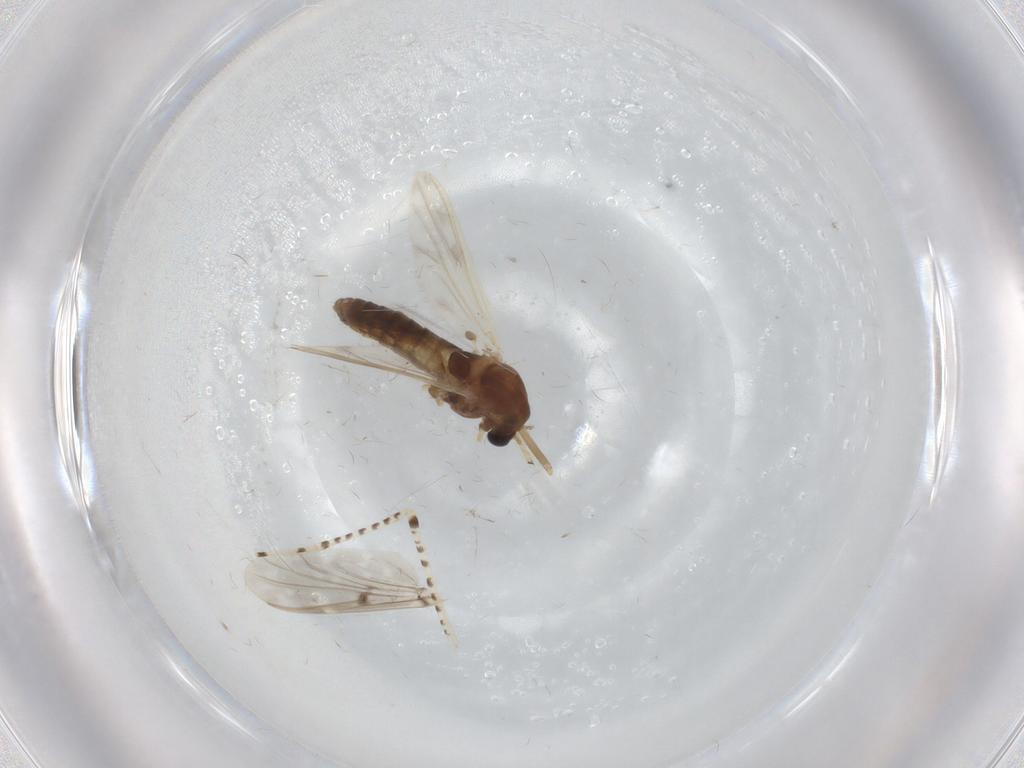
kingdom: Animalia
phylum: Arthropoda
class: Insecta
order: Diptera
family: Chironomidae
